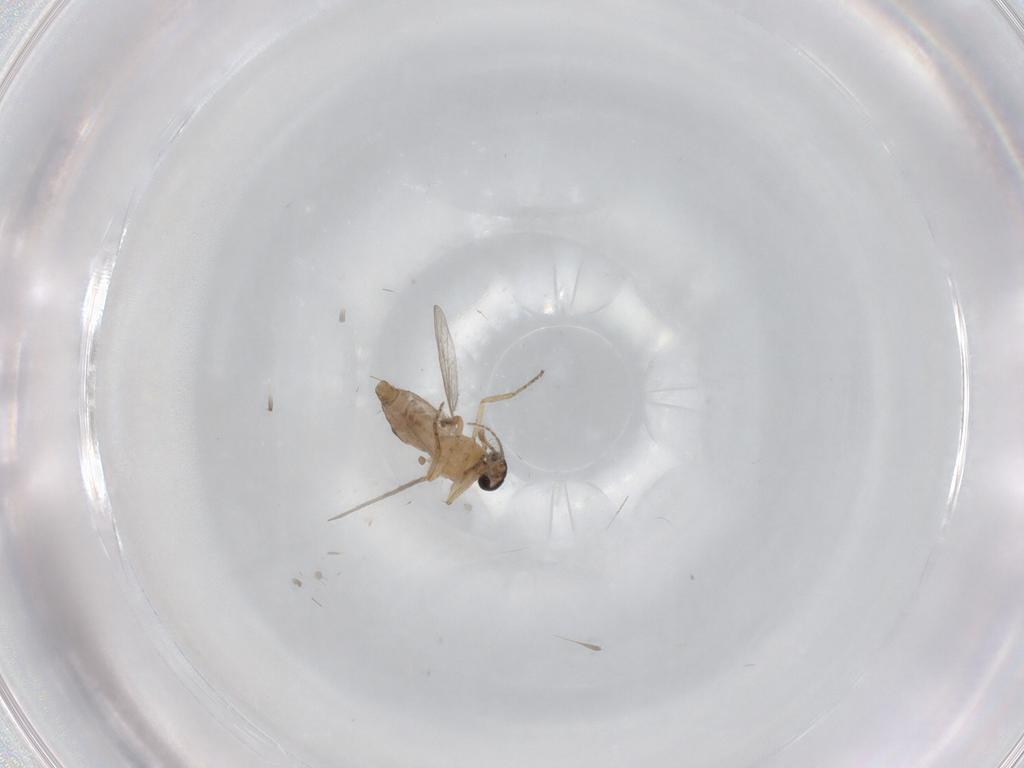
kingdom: Animalia
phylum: Arthropoda
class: Insecta
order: Diptera
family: Ceratopogonidae
